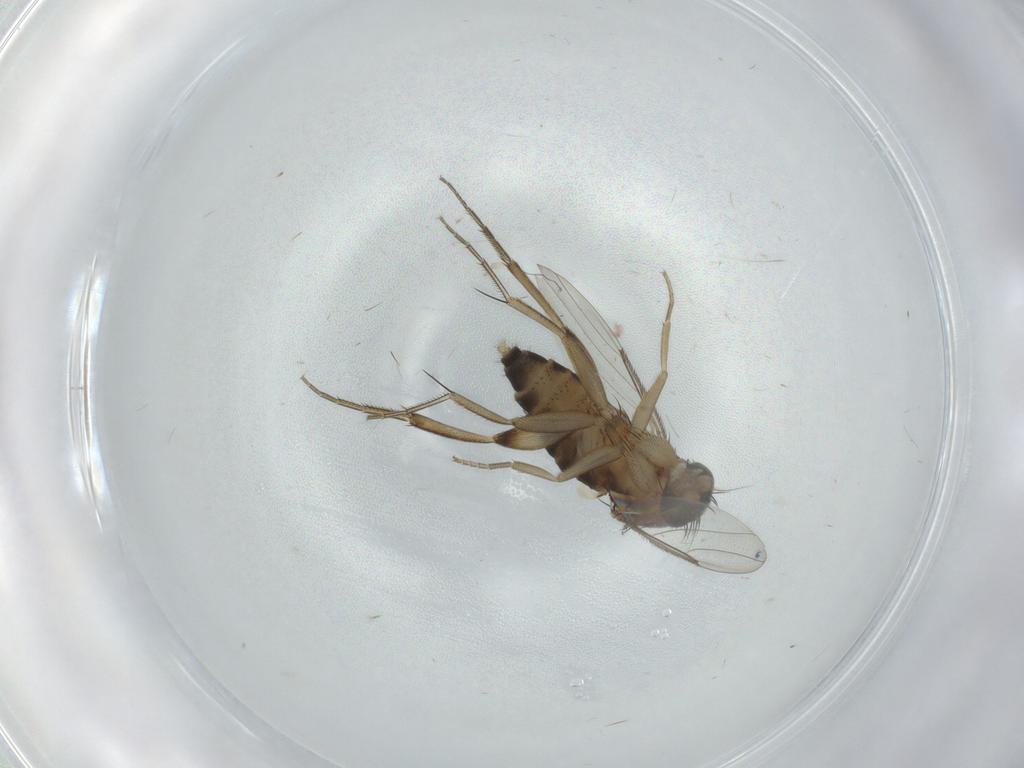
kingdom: Animalia
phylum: Arthropoda
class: Insecta
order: Diptera
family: Phoridae
